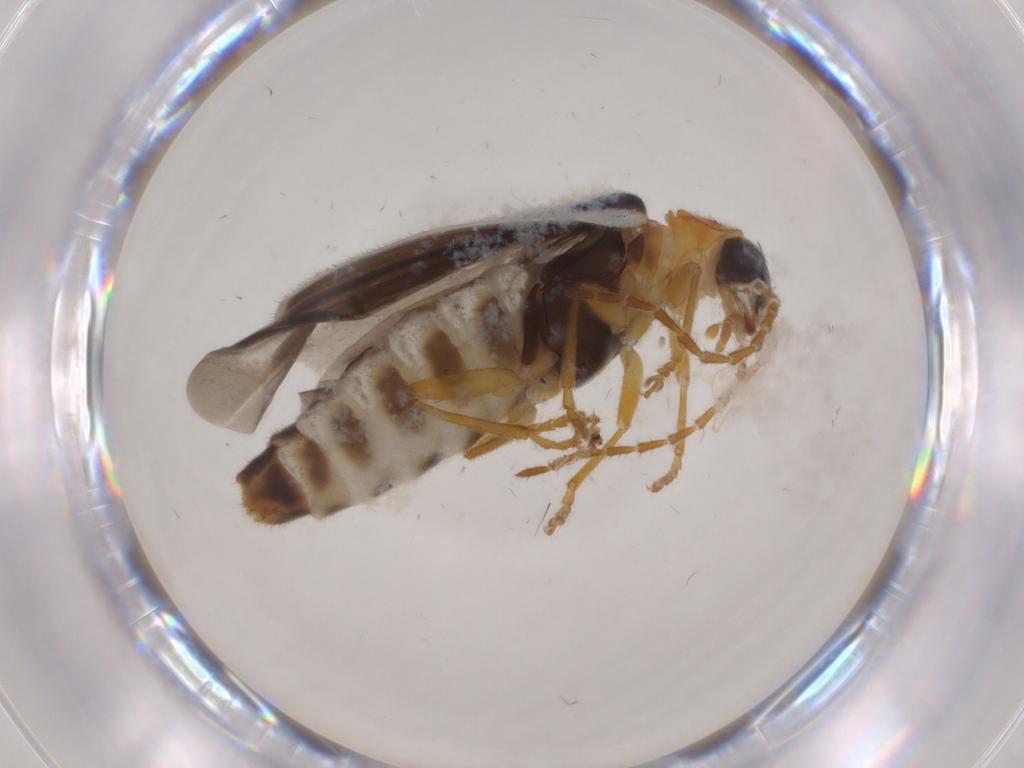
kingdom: Animalia
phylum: Arthropoda
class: Insecta
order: Coleoptera
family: Cantharidae
